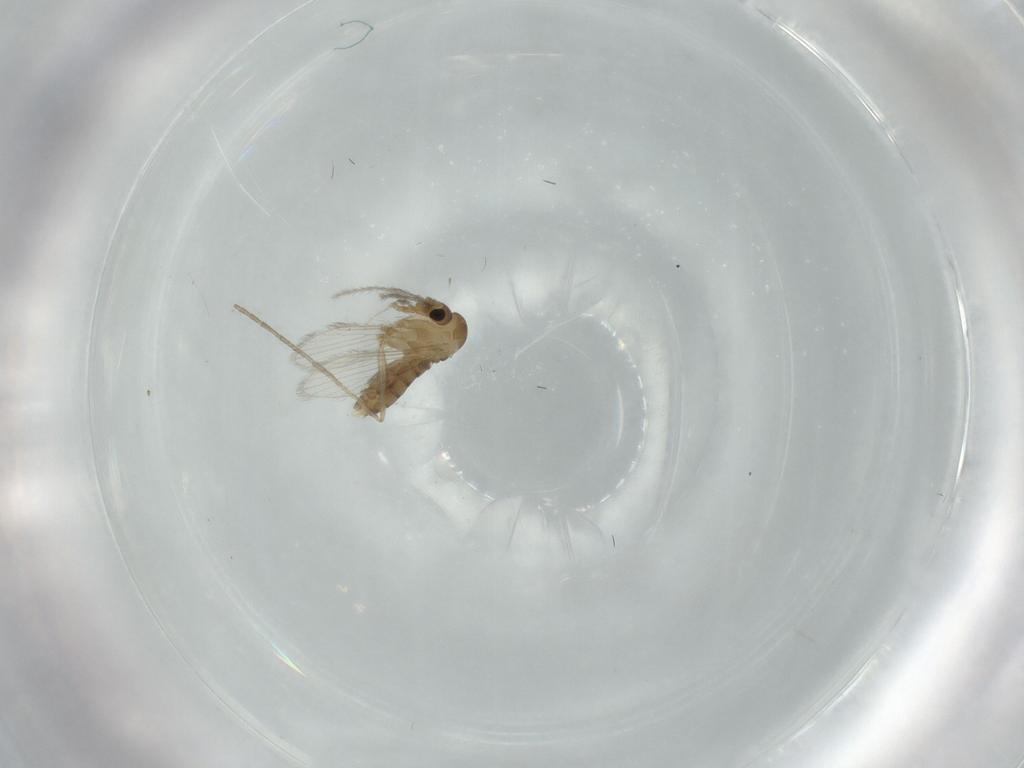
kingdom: Animalia
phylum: Arthropoda
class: Insecta
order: Diptera
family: Psychodidae
